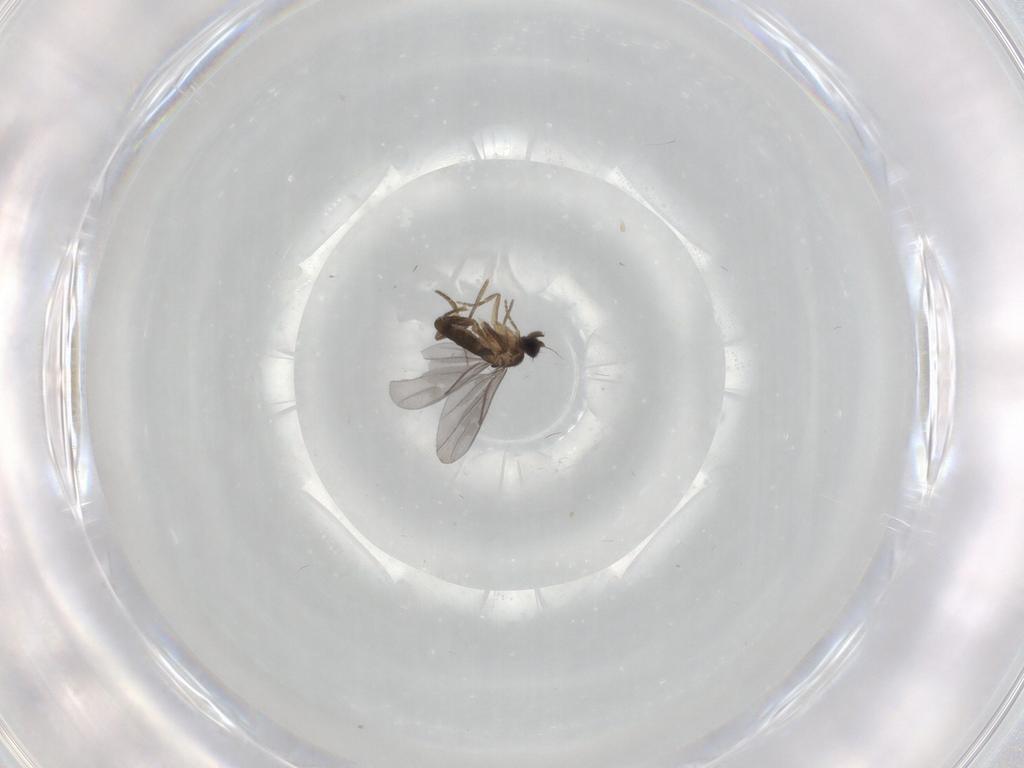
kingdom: Animalia
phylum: Arthropoda
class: Insecta
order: Diptera
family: Ceratopogonidae
